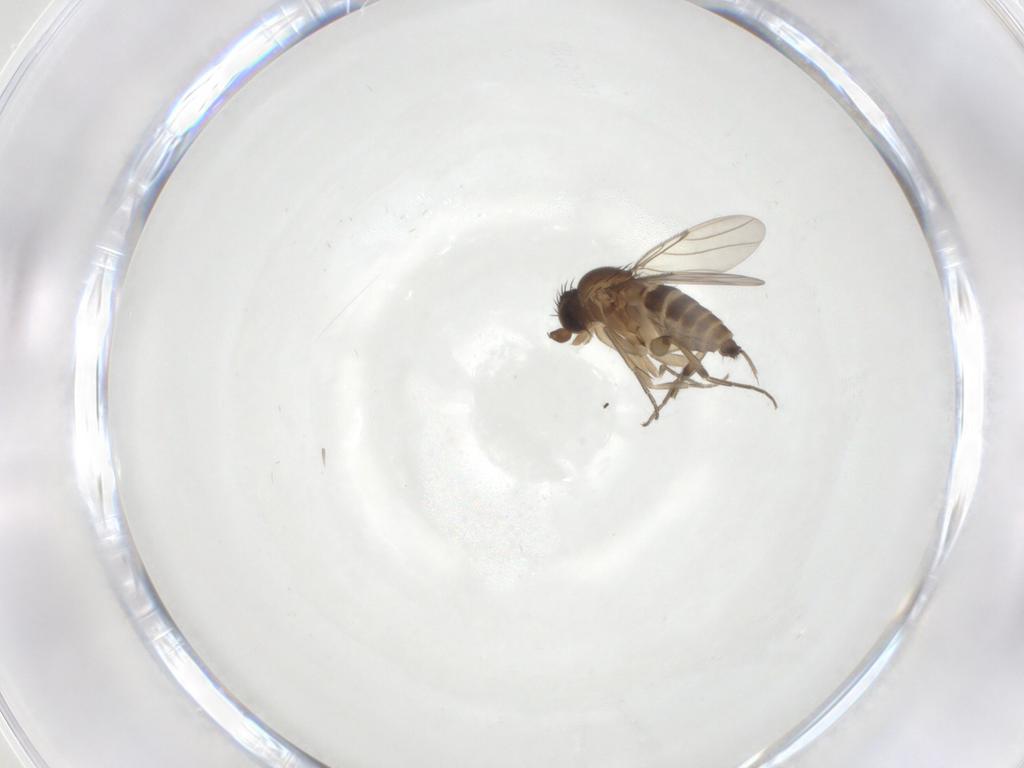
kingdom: Animalia
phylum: Arthropoda
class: Insecta
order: Diptera
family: Phoridae
